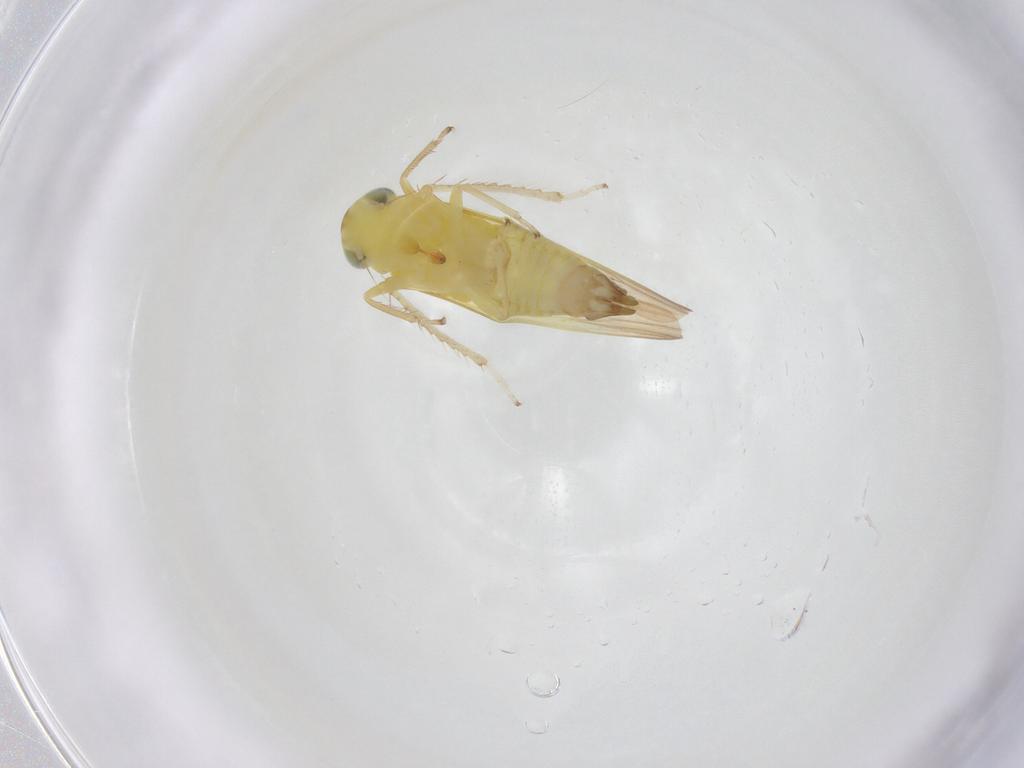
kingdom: Animalia
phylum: Arthropoda
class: Insecta
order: Hemiptera
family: Cicadellidae
